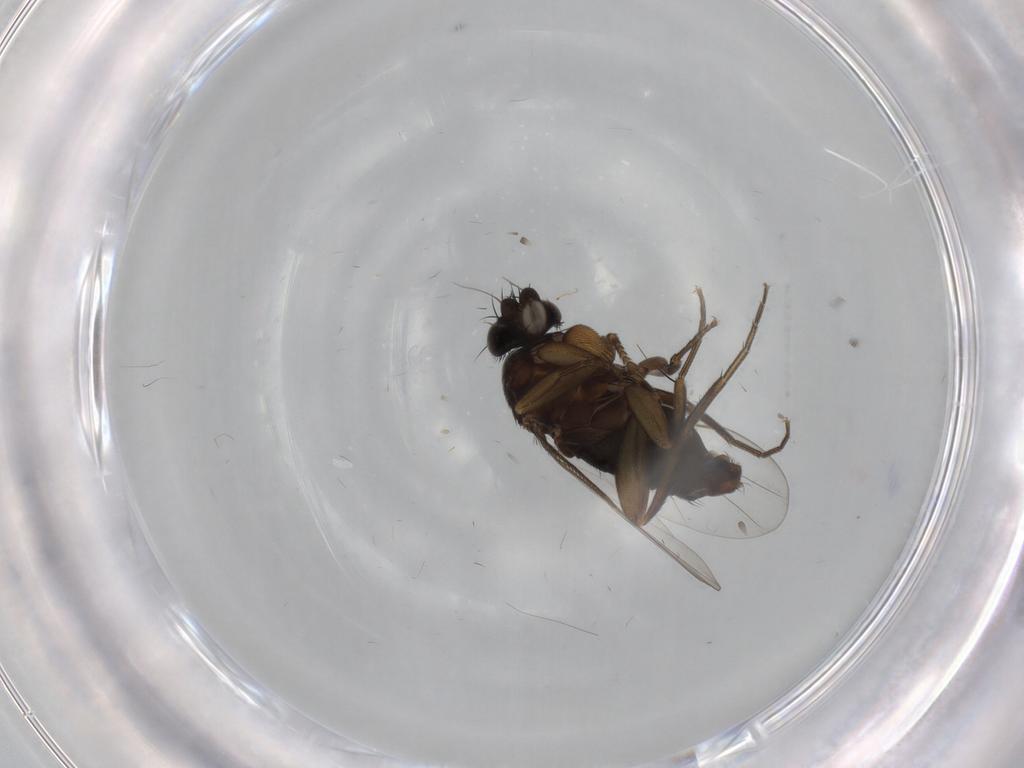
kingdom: Animalia
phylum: Arthropoda
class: Insecta
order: Diptera
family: Phoridae
